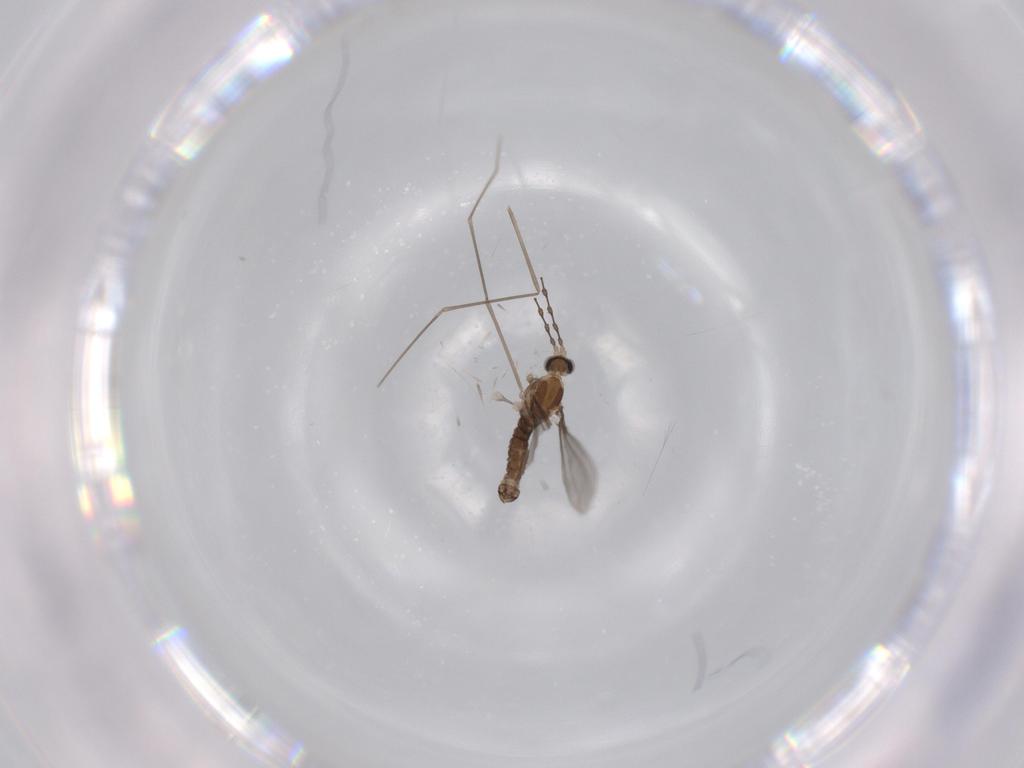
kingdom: Animalia
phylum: Arthropoda
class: Insecta
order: Diptera
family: Cecidomyiidae
